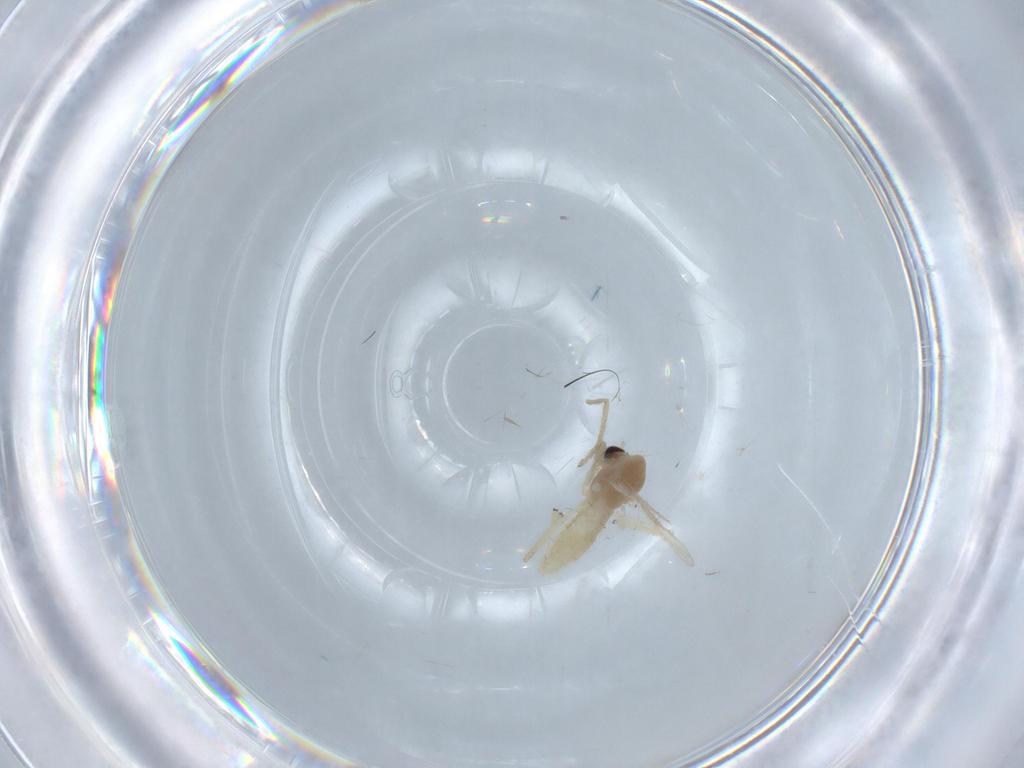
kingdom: Animalia
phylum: Arthropoda
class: Insecta
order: Diptera
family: Chironomidae
